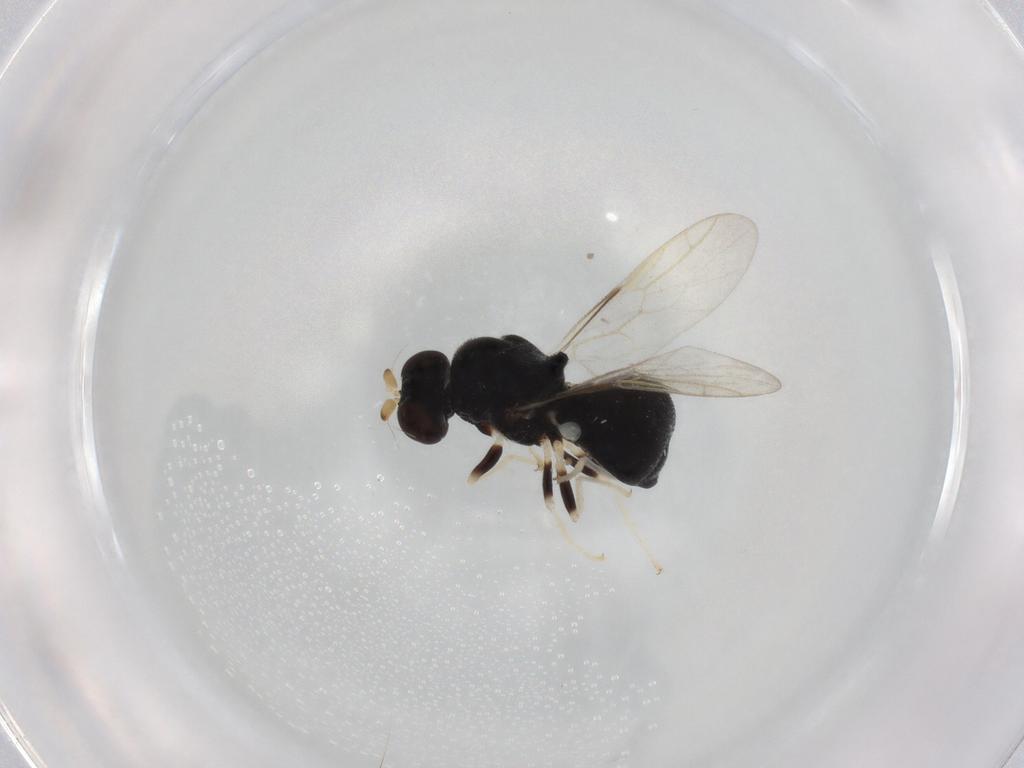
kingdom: Animalia
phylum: Arthropoda
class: Insecta
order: Diptera
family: Stratiomyidae
